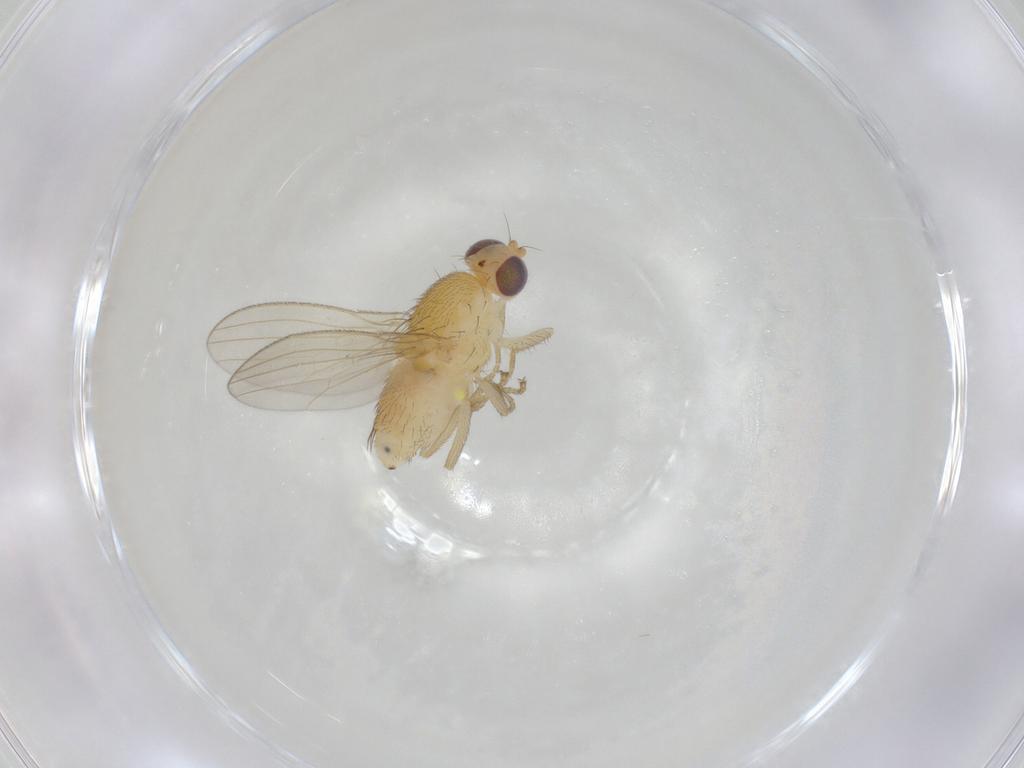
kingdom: Animalia
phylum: Arthropoda
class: Insecta
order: Diptera
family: Chyromyidae
